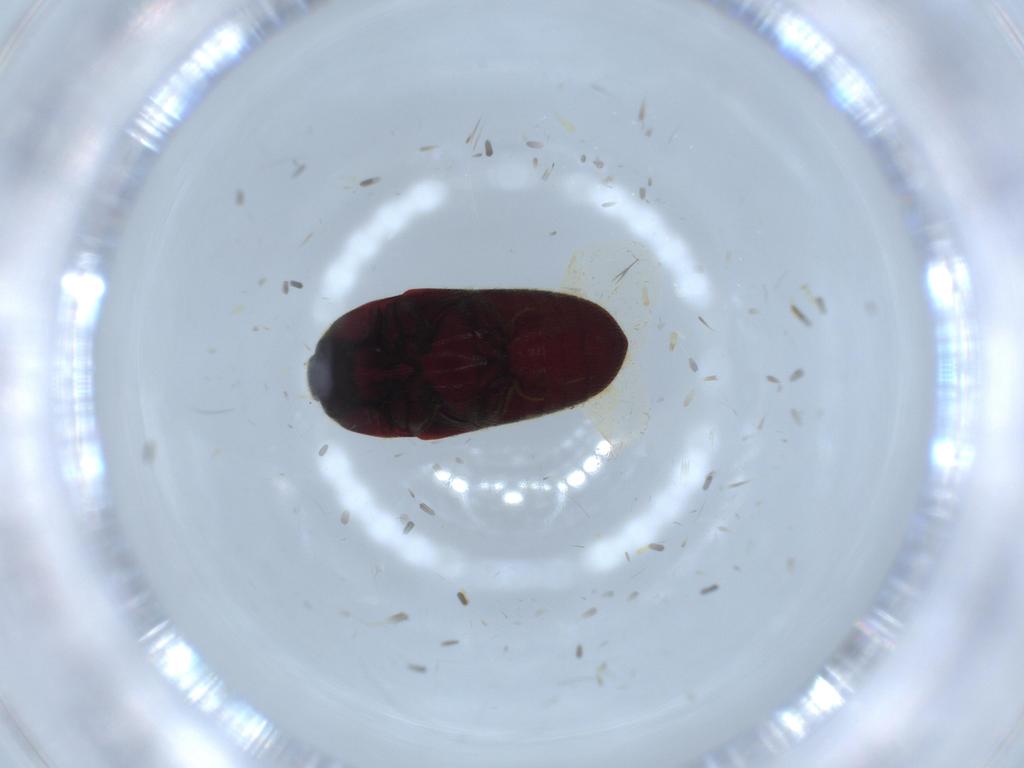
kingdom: Animalia
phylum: Arthropoda
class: Insecta
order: Coleoptera
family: Throscidae
